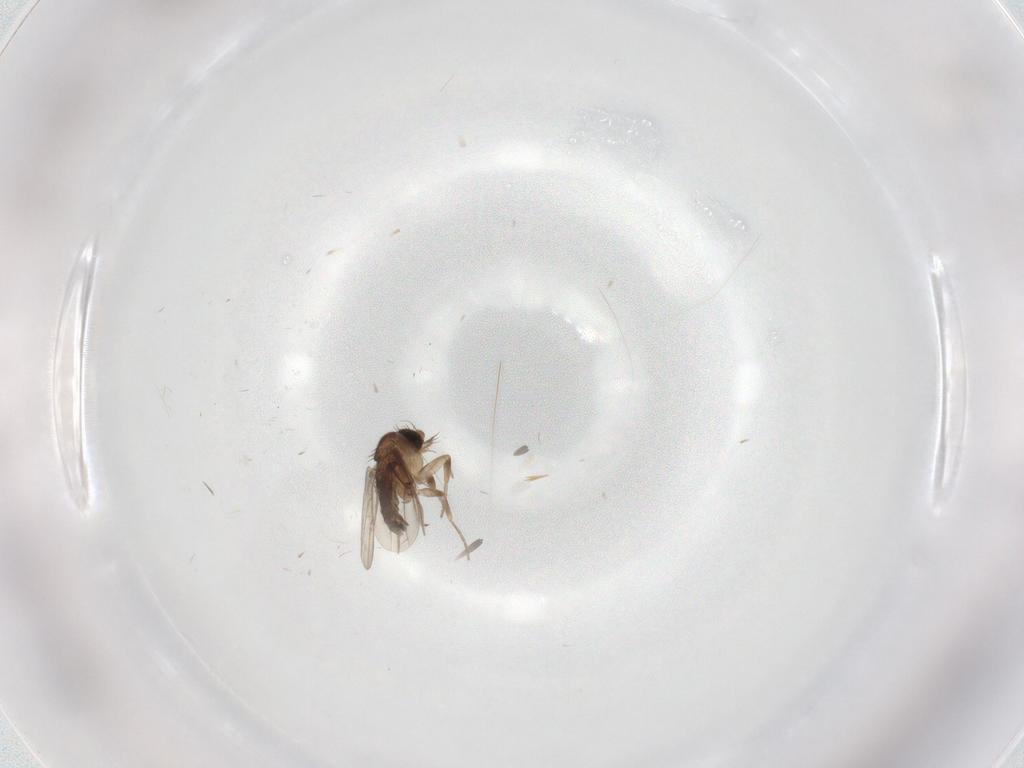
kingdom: Animalia
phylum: Arthropoda
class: Insecta
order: Diptera
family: Phoridae
